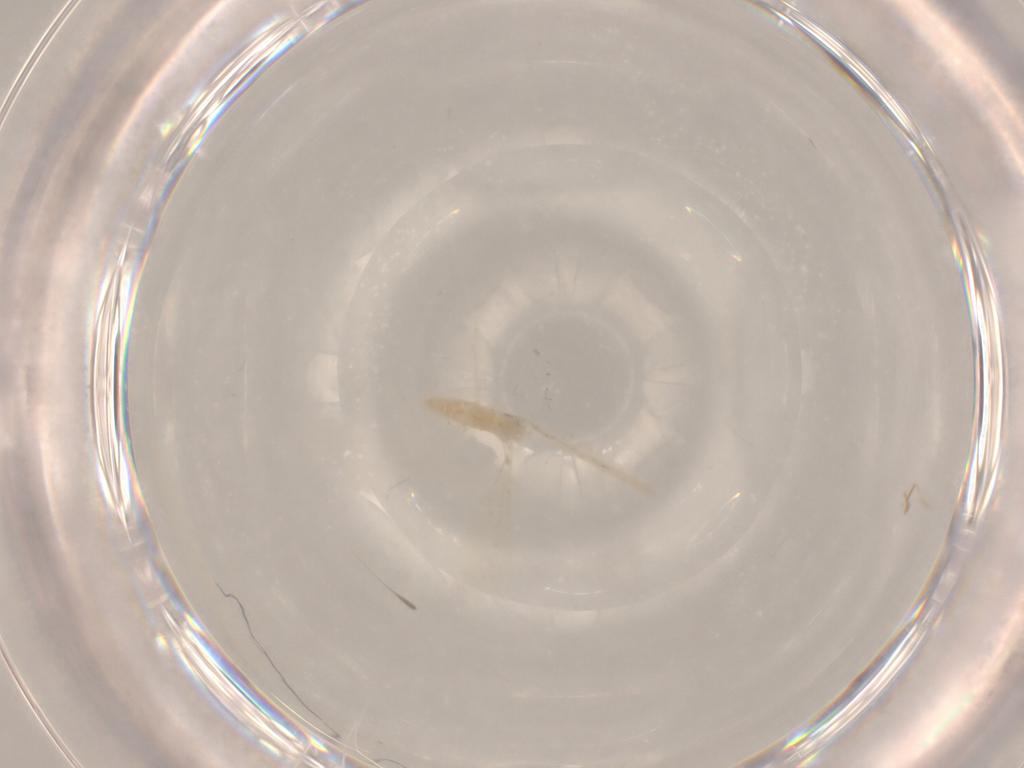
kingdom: Animalia
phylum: Arthropoda
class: Insecta
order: Diptera
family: Cecidomyiidae
